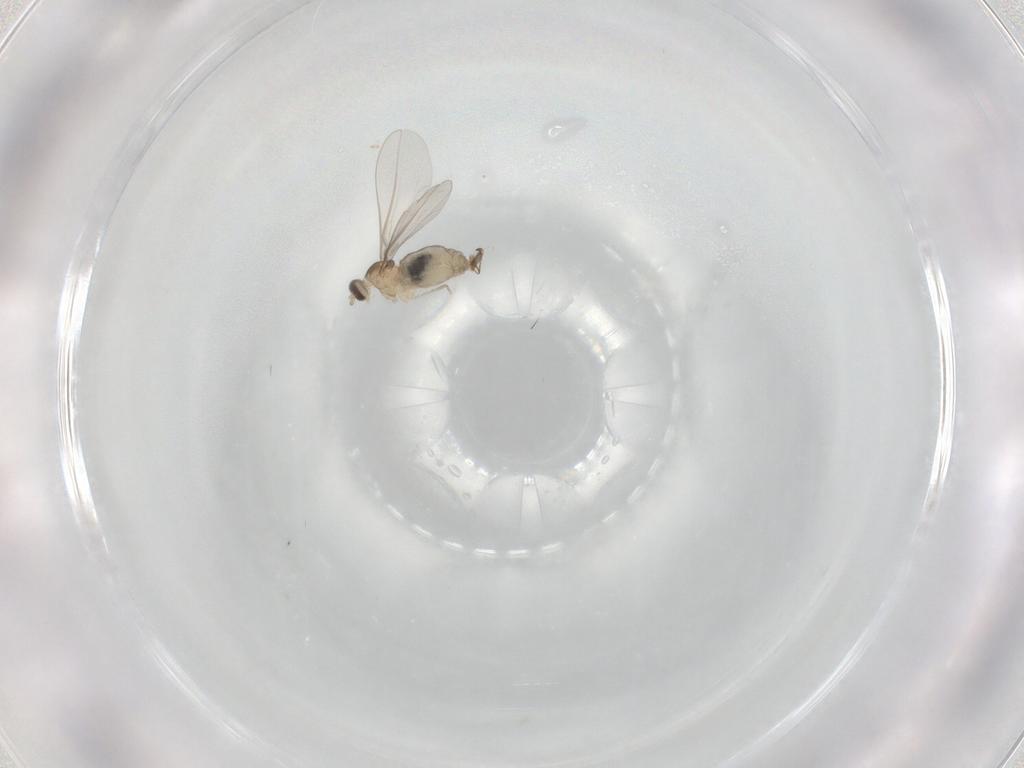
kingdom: Animalia
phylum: Arthropoda
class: Insecta
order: Diptera
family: Cecidomyiidae
